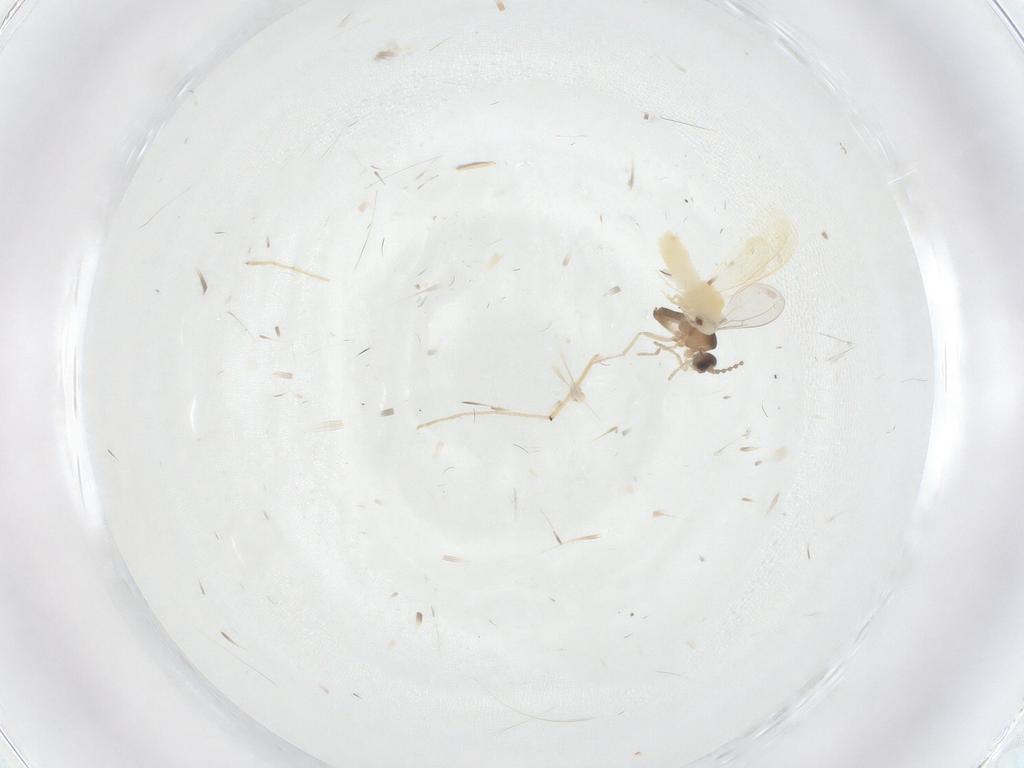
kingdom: Animalia
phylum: Arthropoda
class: Insecta
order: Diptera
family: Cecidomyiidae
